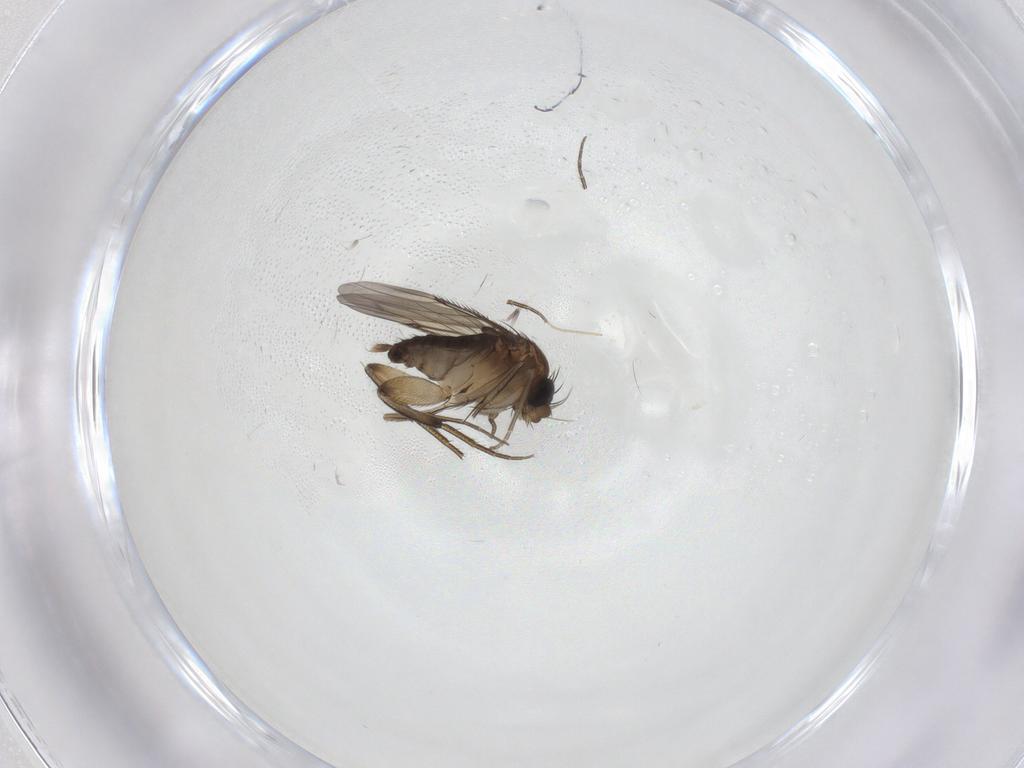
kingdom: Animalia
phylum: Arthropoda
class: Insecta
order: Diptera
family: Phoridae
